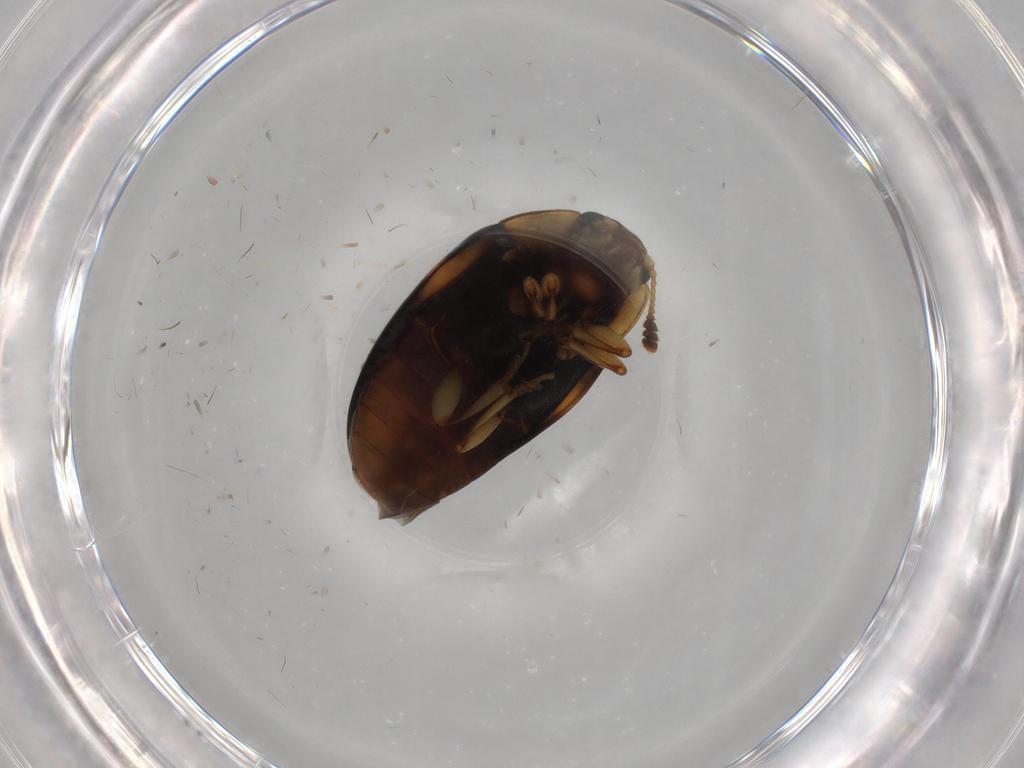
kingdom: Animalia
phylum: Arthropoda
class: Insecta
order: Coleoptera
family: Erotylidae
